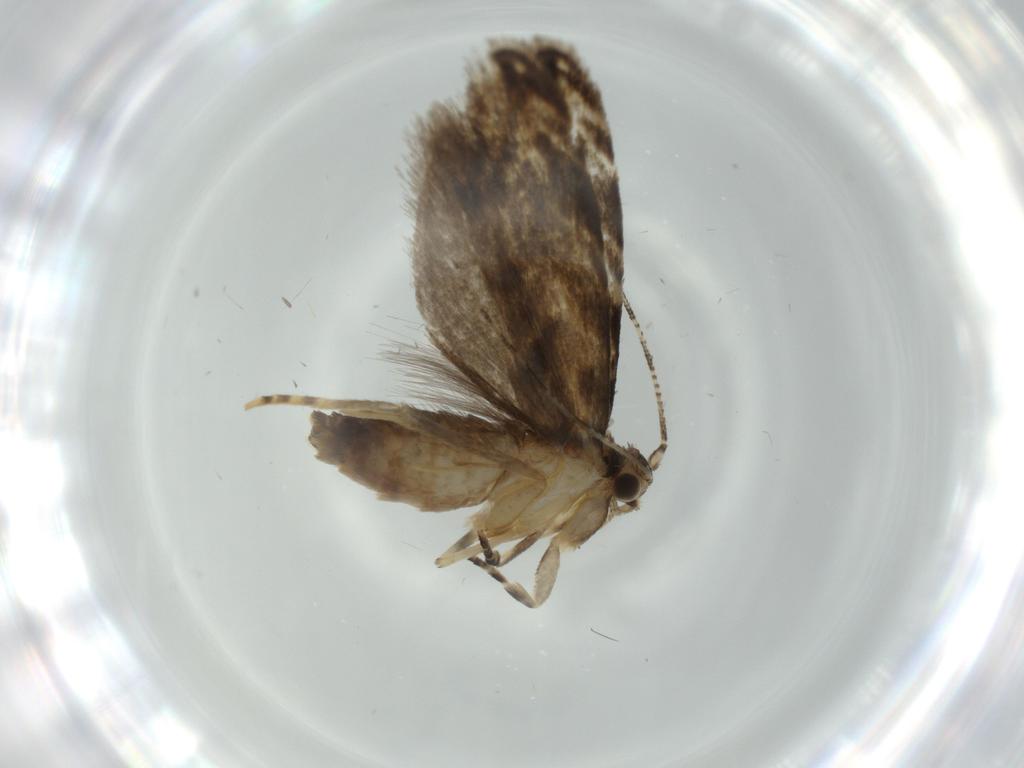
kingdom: Animalia
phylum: Arthropoda
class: Insecta
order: Lepidoptera
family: Tineidae
